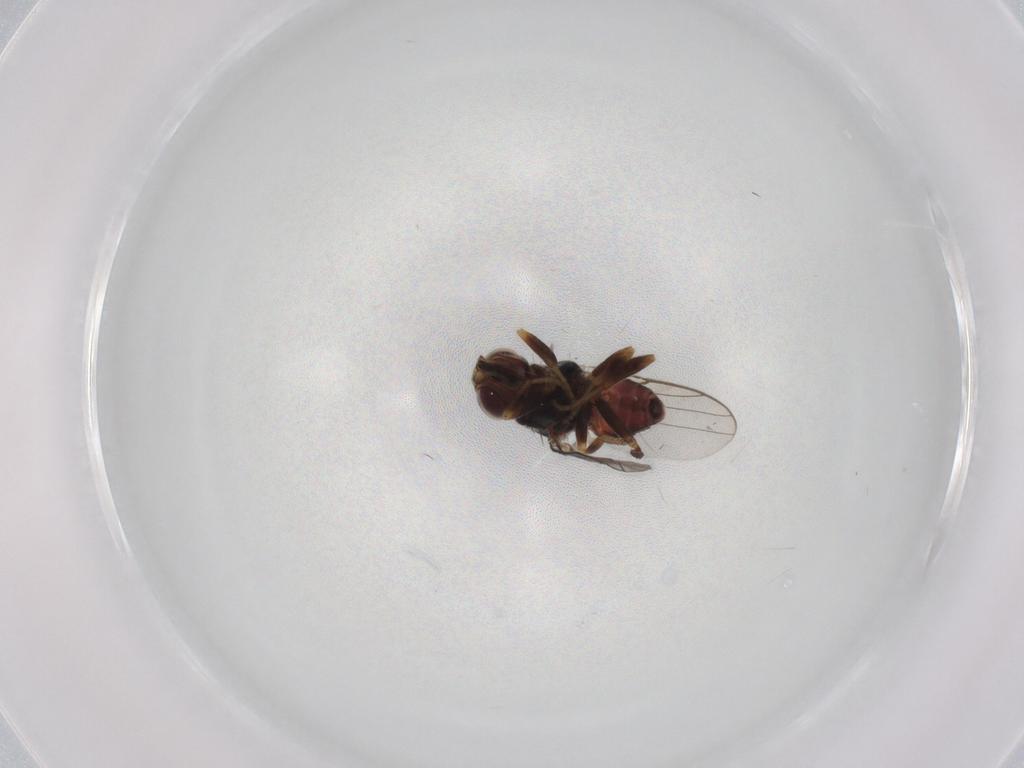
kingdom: Animalia
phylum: Arthropoda
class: Insecta
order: Diptera
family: Chloropidae
